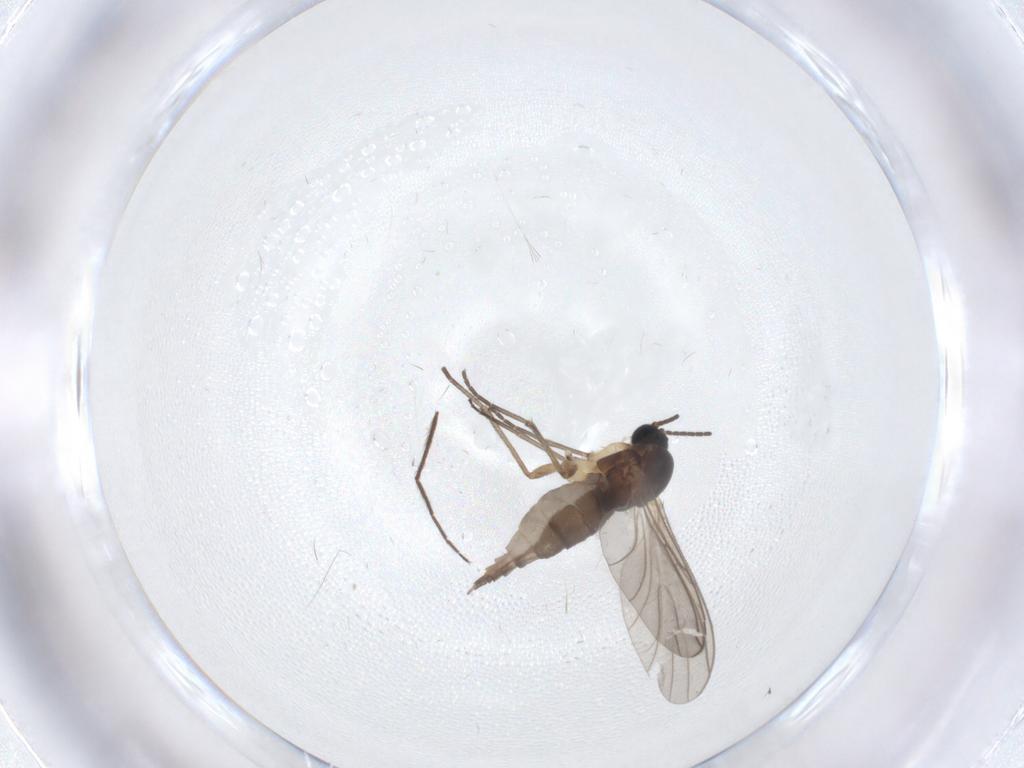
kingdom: Animalia
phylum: Arthropoda
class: Insecta
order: Diptera
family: Sciaridae
